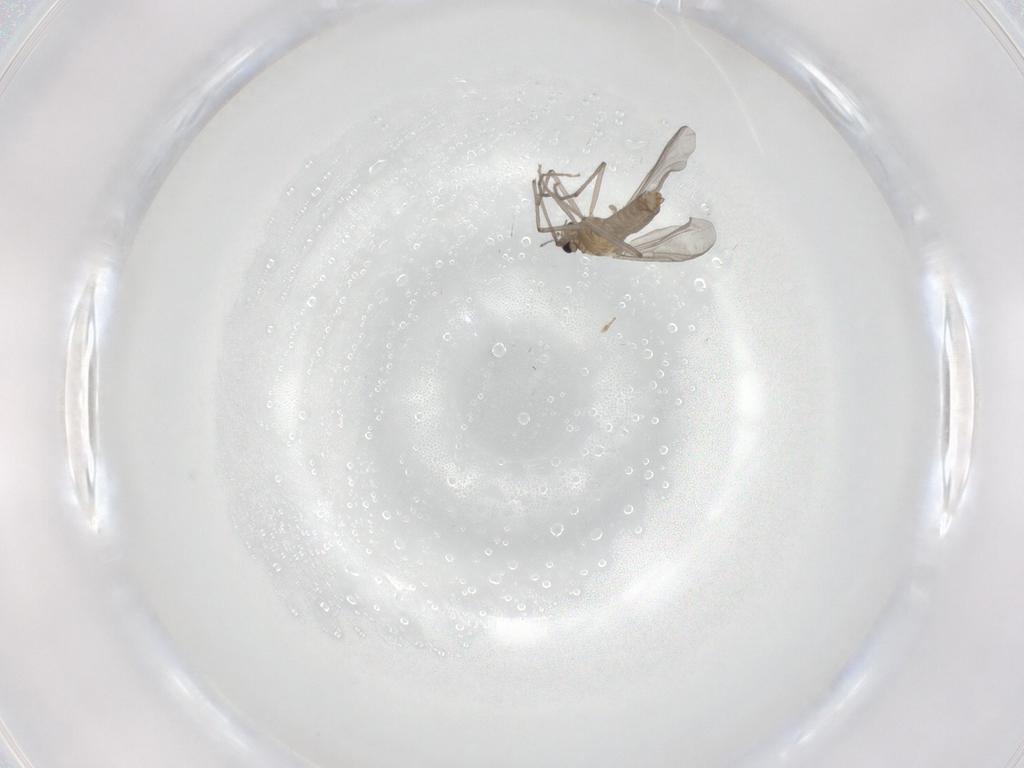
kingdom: Animalia
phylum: Arthropoda
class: Insecta
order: Diptera
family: Chironomidae
